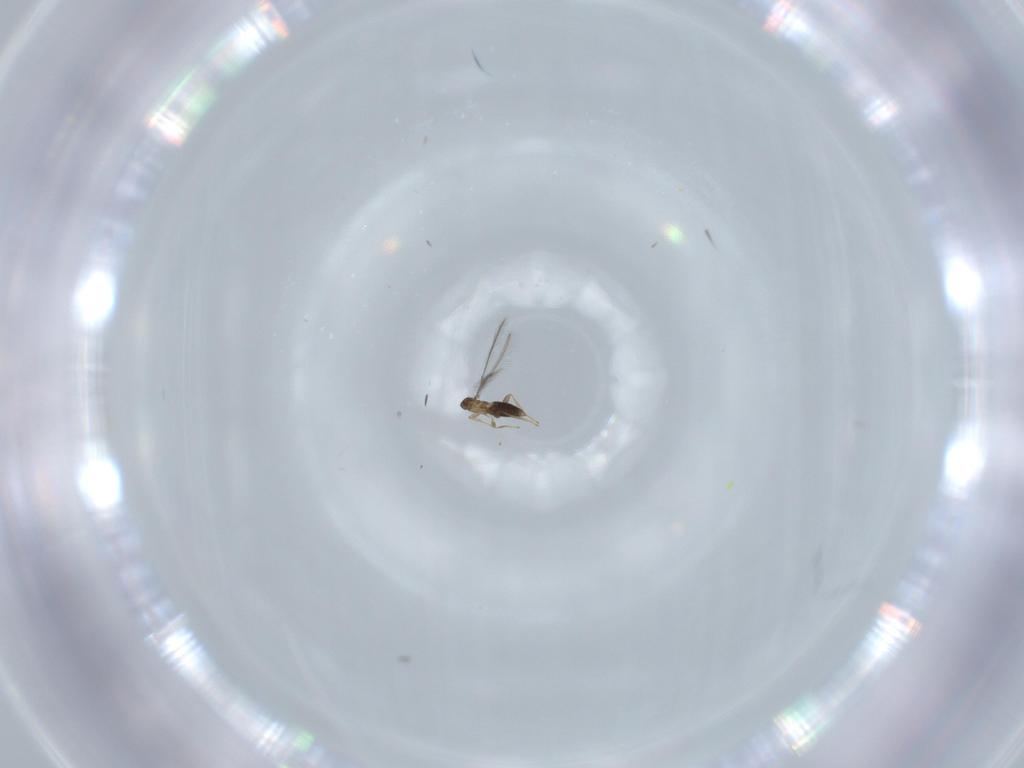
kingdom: Animalia
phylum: Arthropoda
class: Insecta
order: Hymenoptera
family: Mymaridae
